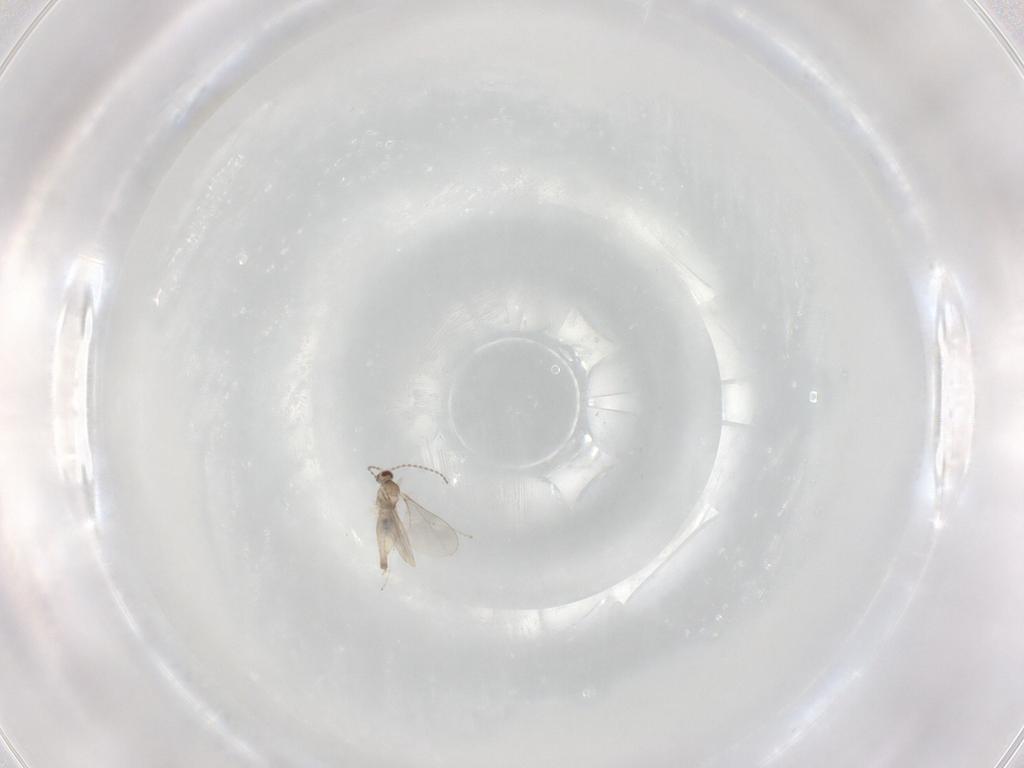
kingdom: Animalia
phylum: Arthropoda
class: Insecta
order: Diptera
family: Cecidomyiidae
